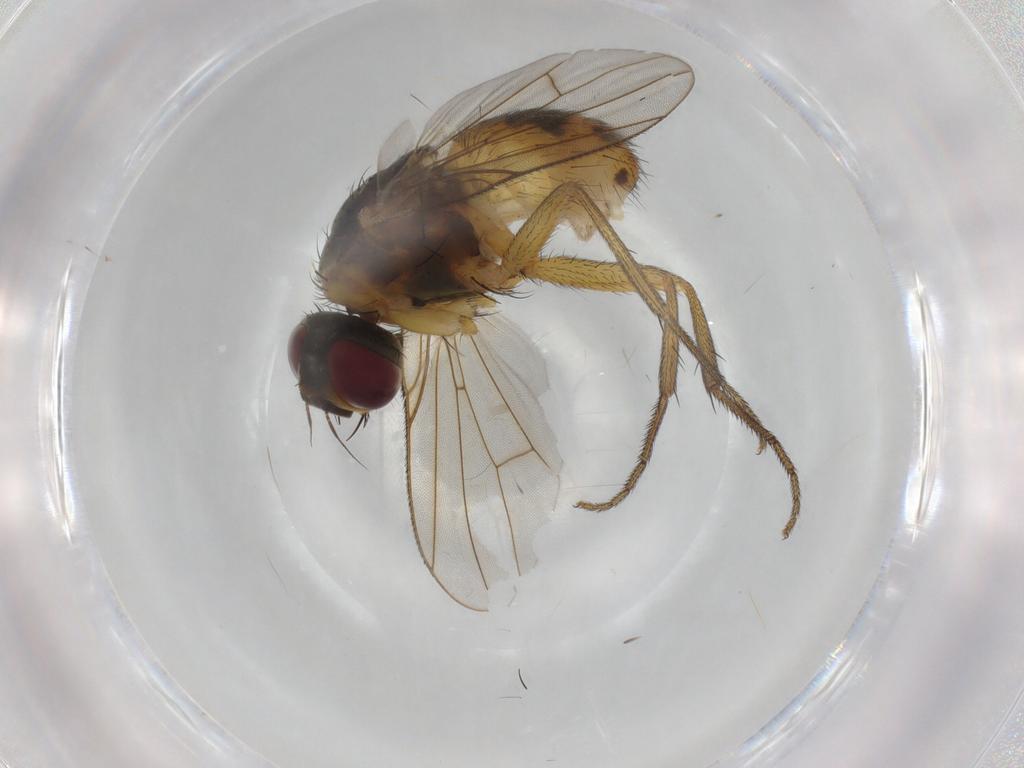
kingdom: Animalia
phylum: Arthropoda
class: Insecta
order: Diptera
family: Muscidae
